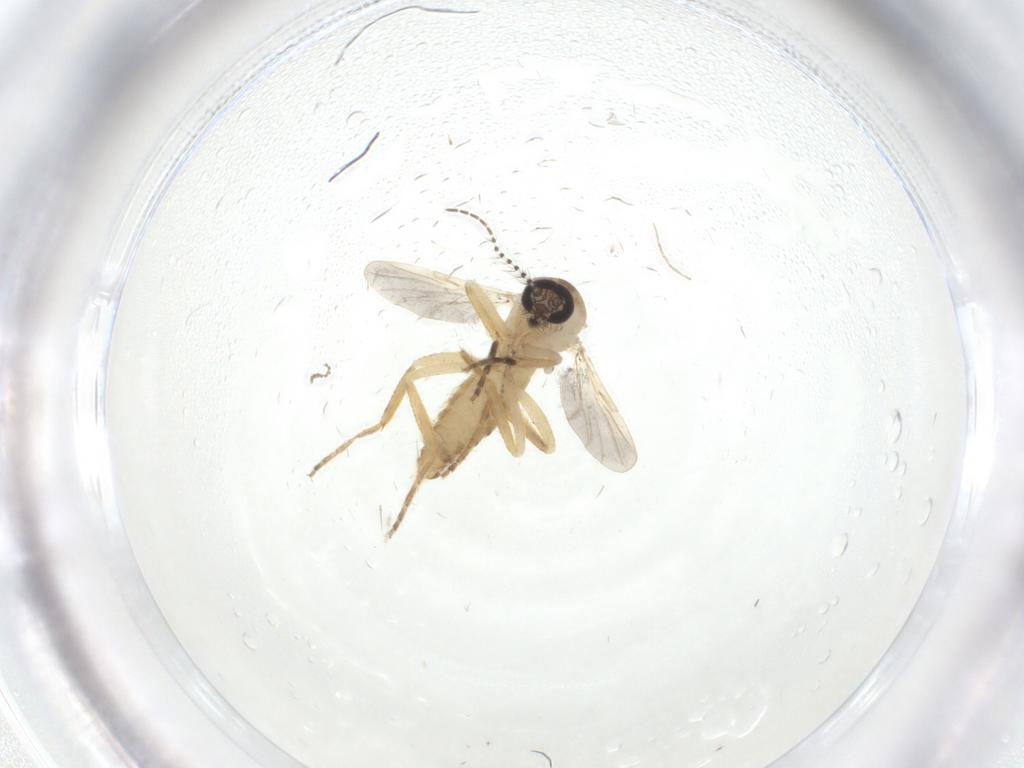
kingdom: Animalia
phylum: Arthropoda
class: Insecta
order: Diptera
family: Ceratopogonidae
